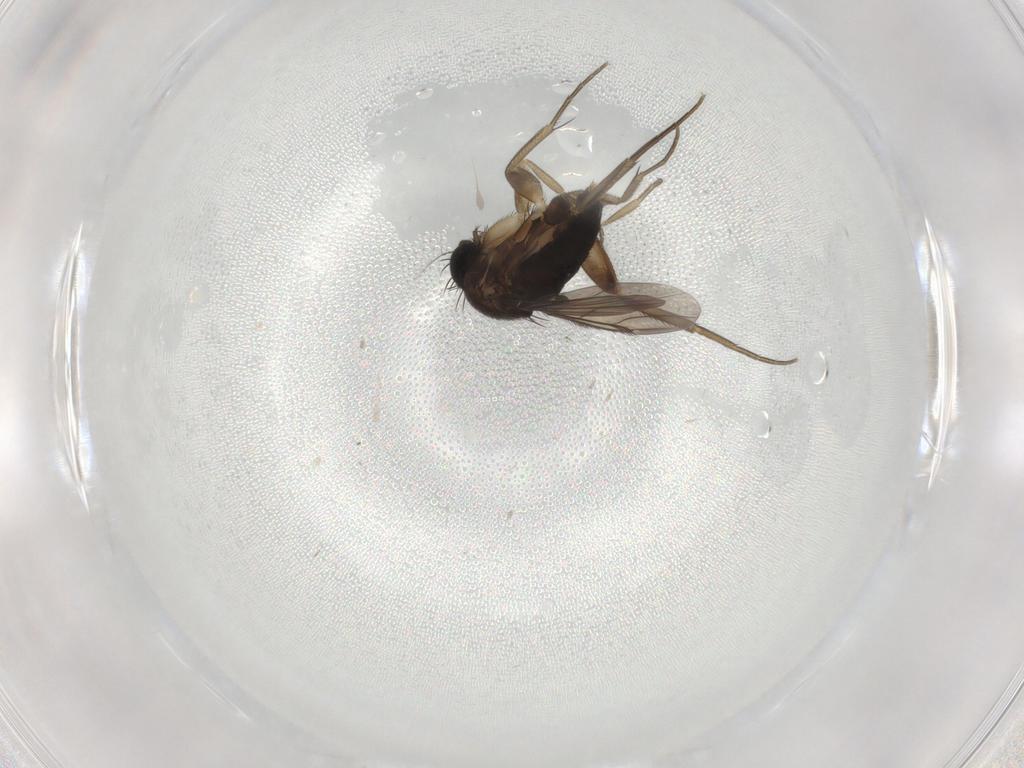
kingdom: Animalia
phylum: Arthropoda
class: Insecta
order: Diptera
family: Phoridae
